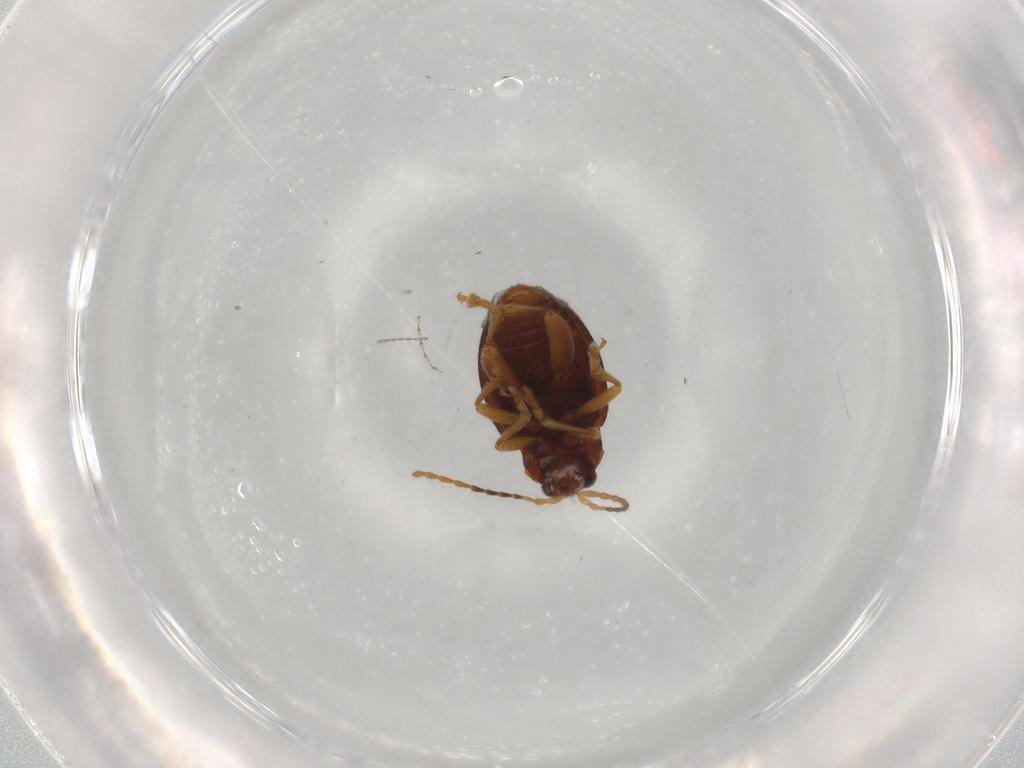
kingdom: Animalia
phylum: Arthropoda
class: Insecta
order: Coleoptera
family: Chrysomelidae
